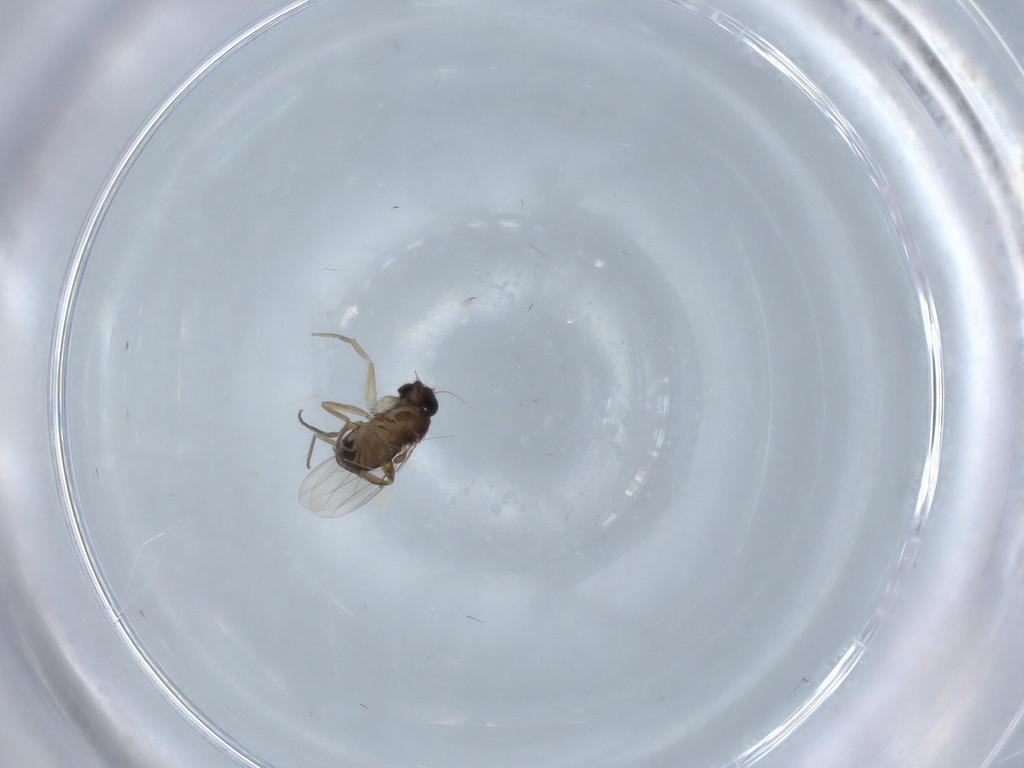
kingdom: Animalia
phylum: Arthropoda
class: Insecta
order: Diptera
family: Phoridae
